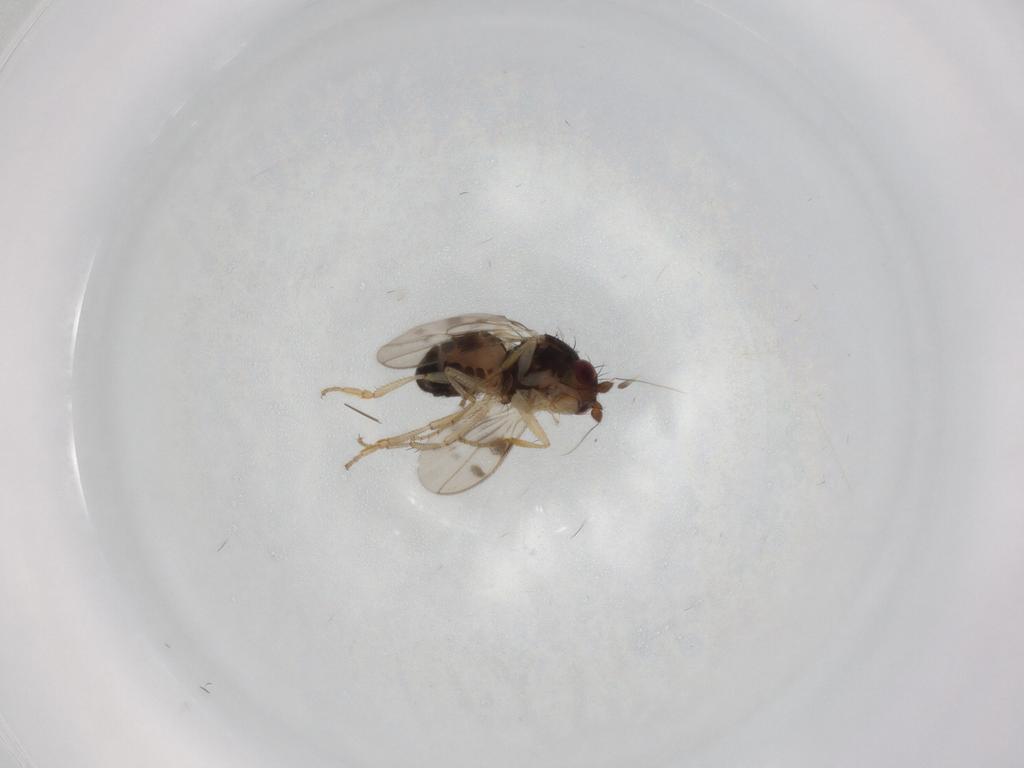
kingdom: Animalia
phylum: Arthropoda
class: Insecta
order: Diptera
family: Sphaeroceridae
